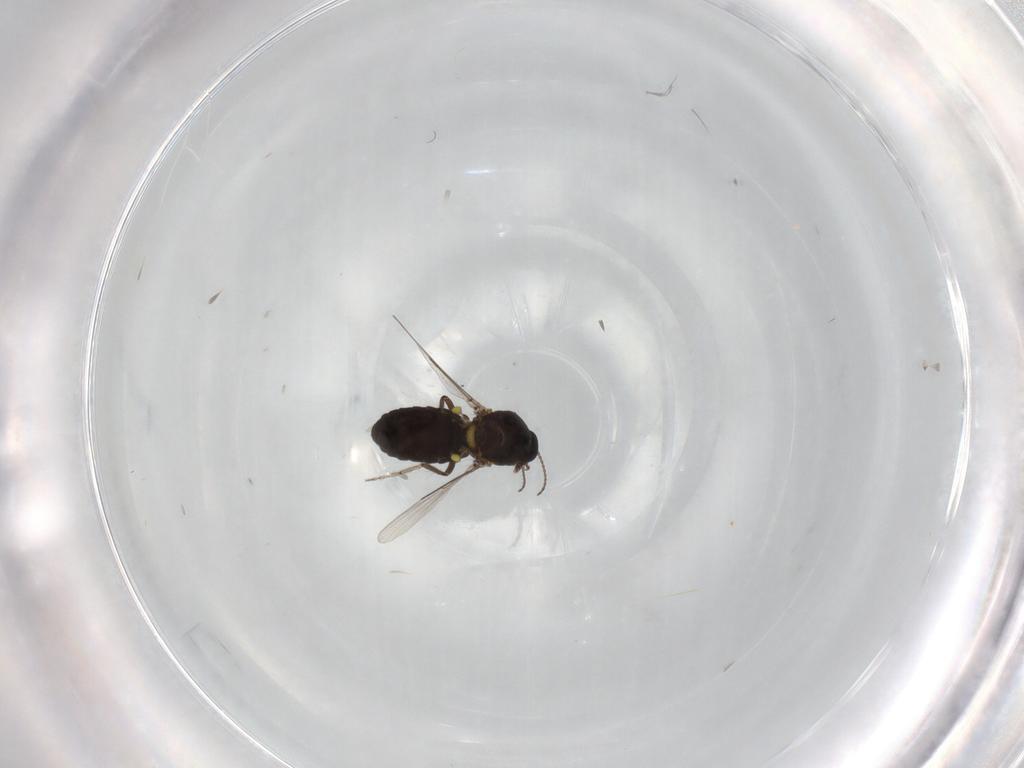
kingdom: Animalia
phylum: Arthropoda
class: Insecta
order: Diptera
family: Ceratopogonidae
